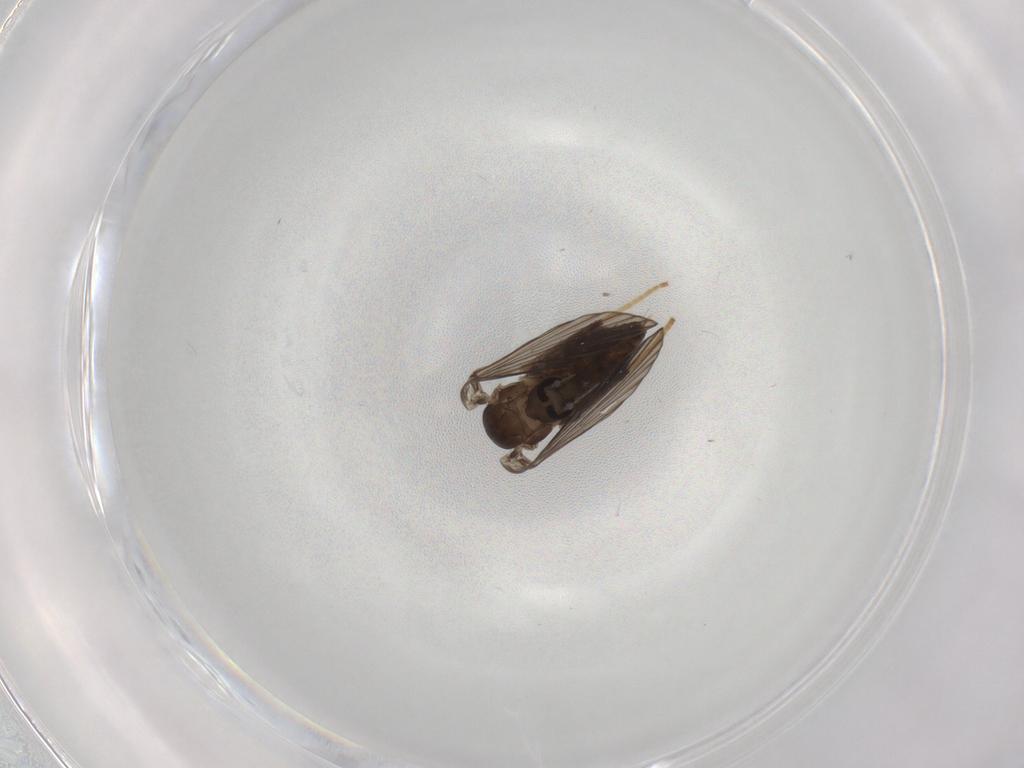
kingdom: Animalia
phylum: Arthropoda
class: Insecta
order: Diptera
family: Psychodidae
